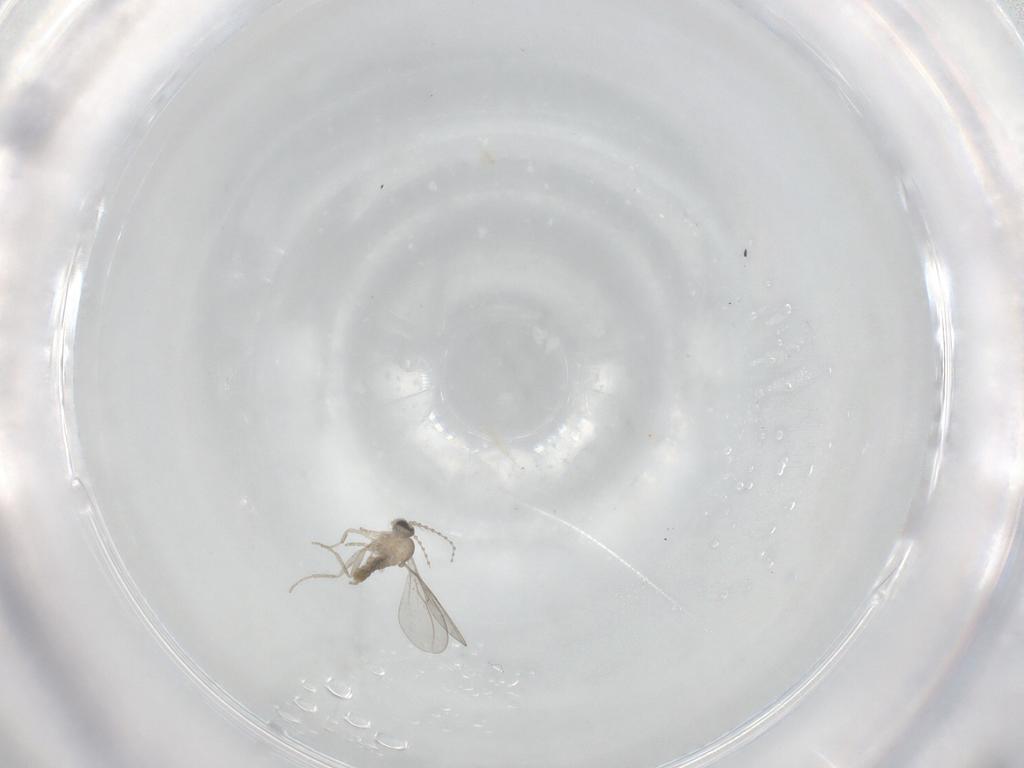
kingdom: Animalia
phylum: Arthropoda
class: Insecta
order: Diptera
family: Cecidomyiidae
